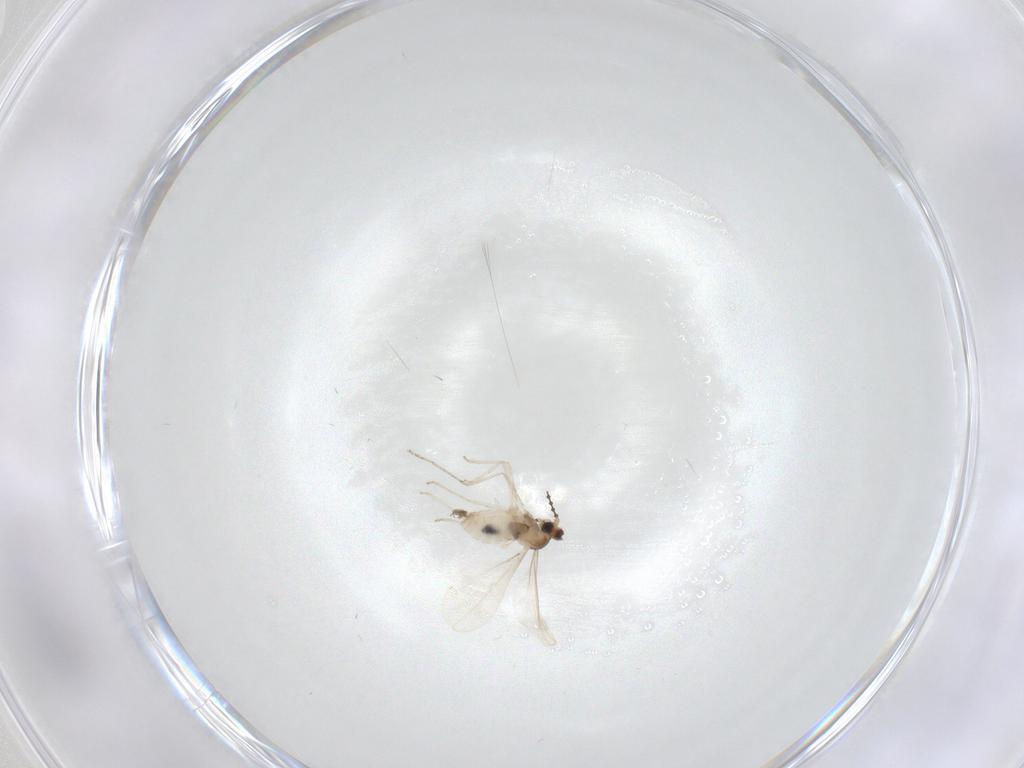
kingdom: Animalia
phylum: Arthropoda
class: Insecta
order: Diptera
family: Cecidomyiidae
